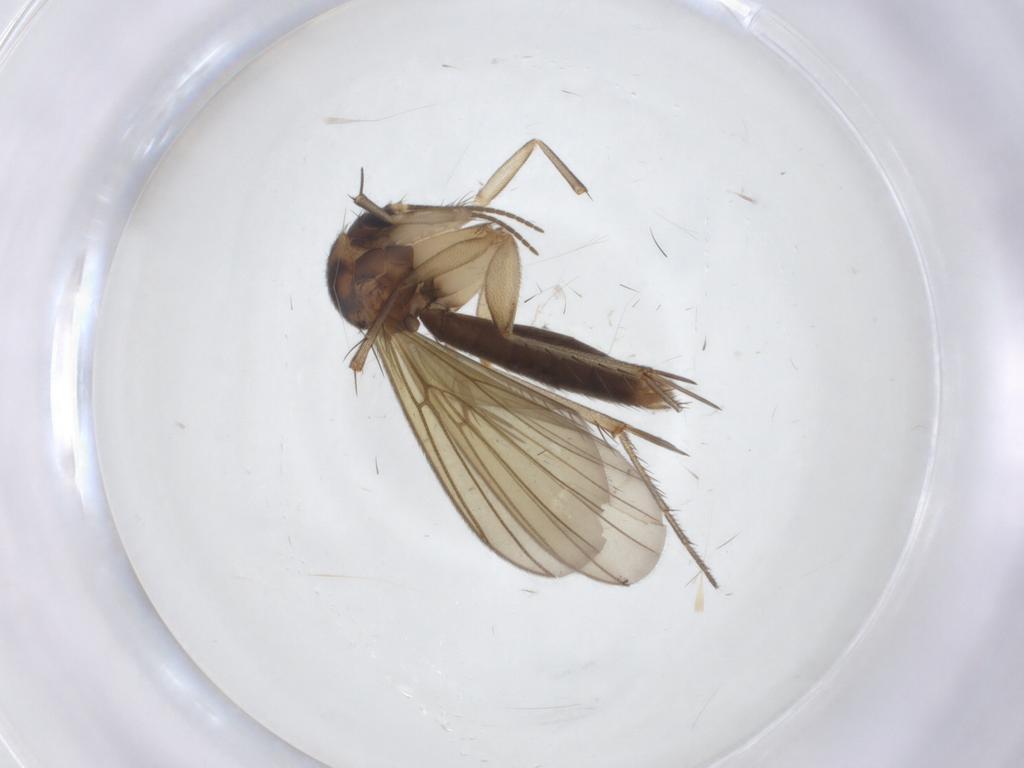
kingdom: Animalia
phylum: Arthropoda
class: Insecta
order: Diptera
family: Mycetophilidae
